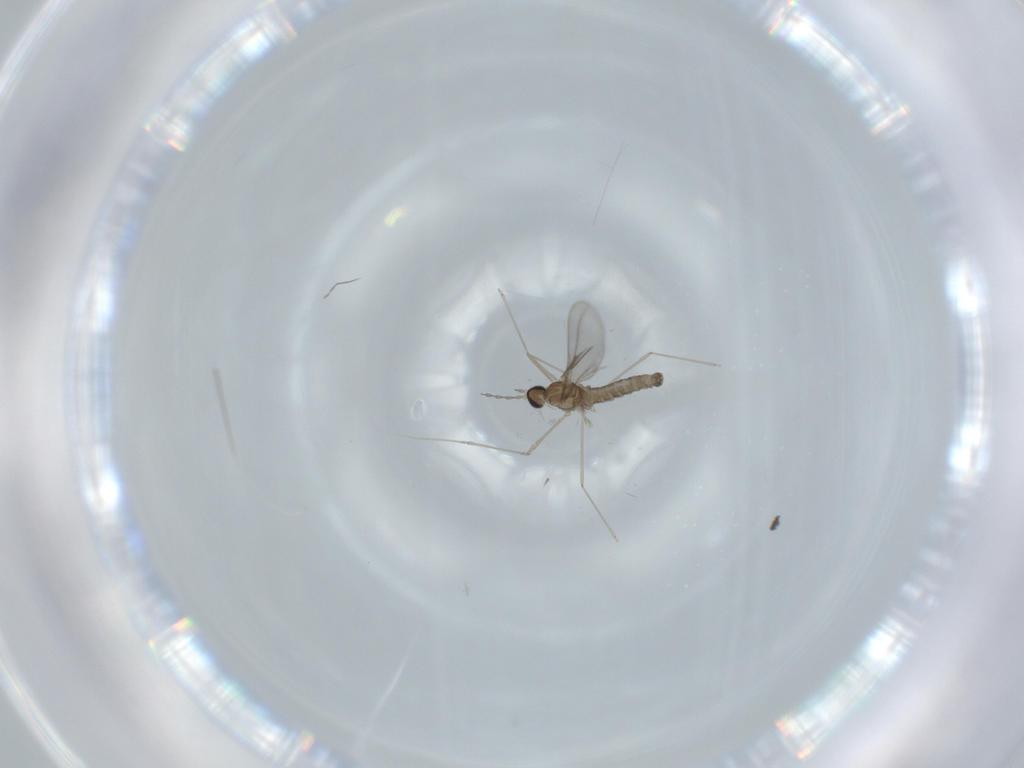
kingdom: Animalia
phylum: Arthropoda
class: Insecta
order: Diptera
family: Cecidomyiidae
